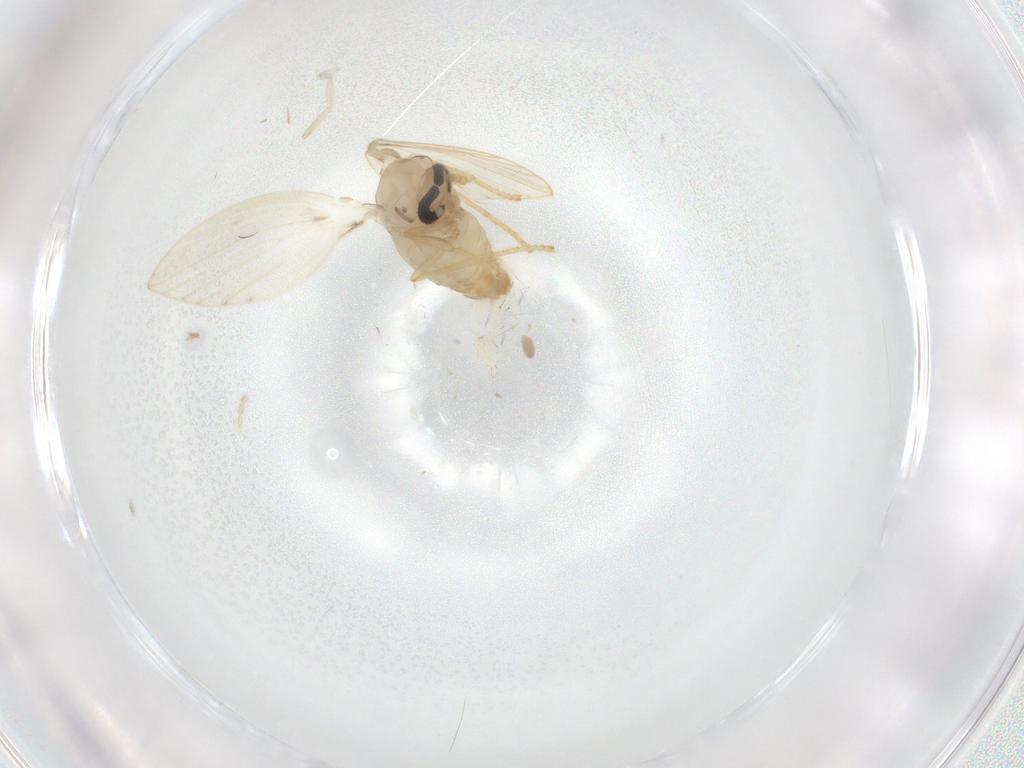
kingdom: Animalia
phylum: Arthropoda
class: Insecta
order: Diptera
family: Psychodidae
